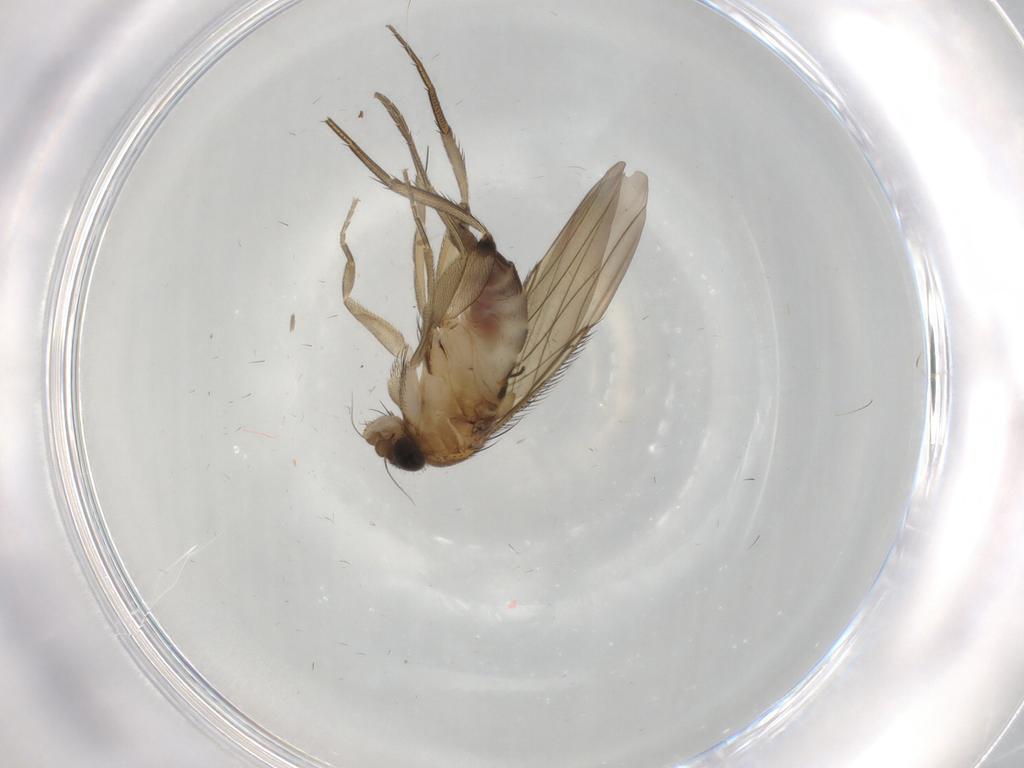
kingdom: Animalia
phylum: Arthropoda
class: Insecta
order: Diptera
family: Phoridae
